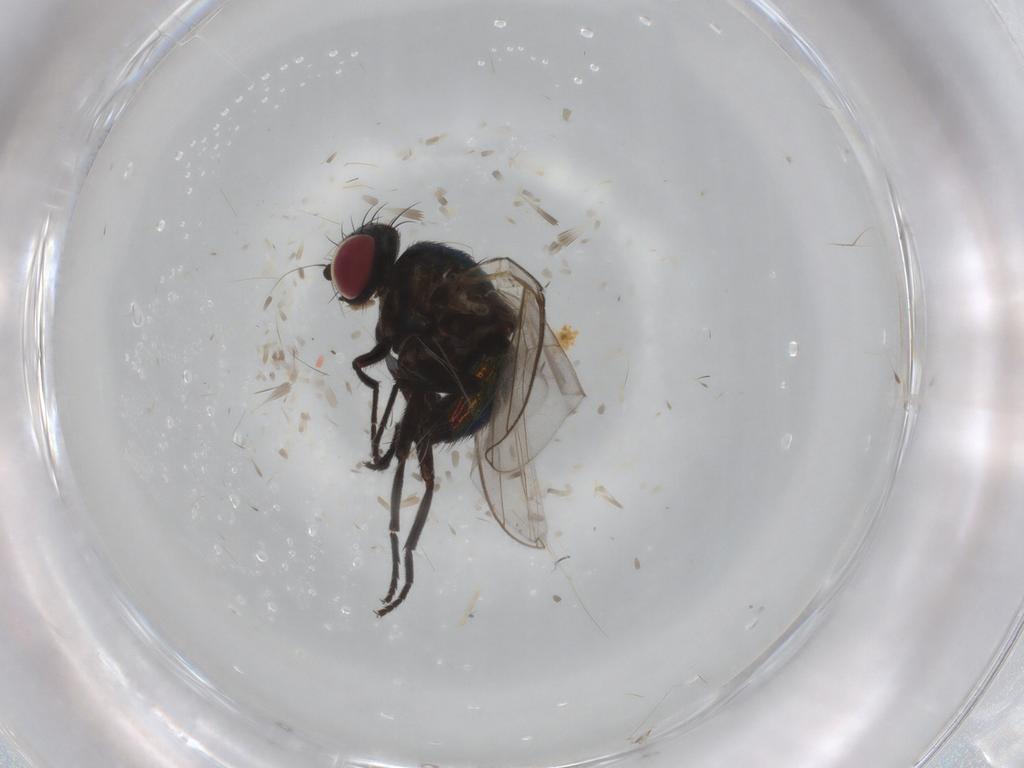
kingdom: Animalia
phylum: Arthropoda
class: Insecta
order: Diptera
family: Agromyzidae
